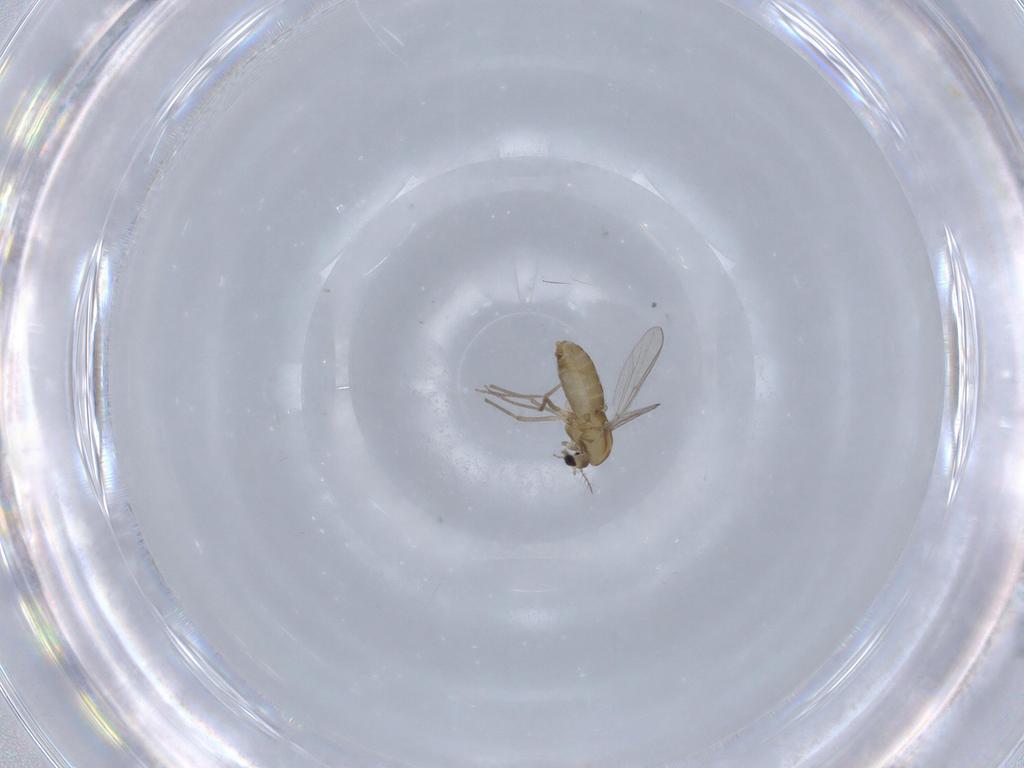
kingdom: Animalia
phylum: Arthropoda
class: Insecta
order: Diptera
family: Chironomidae
